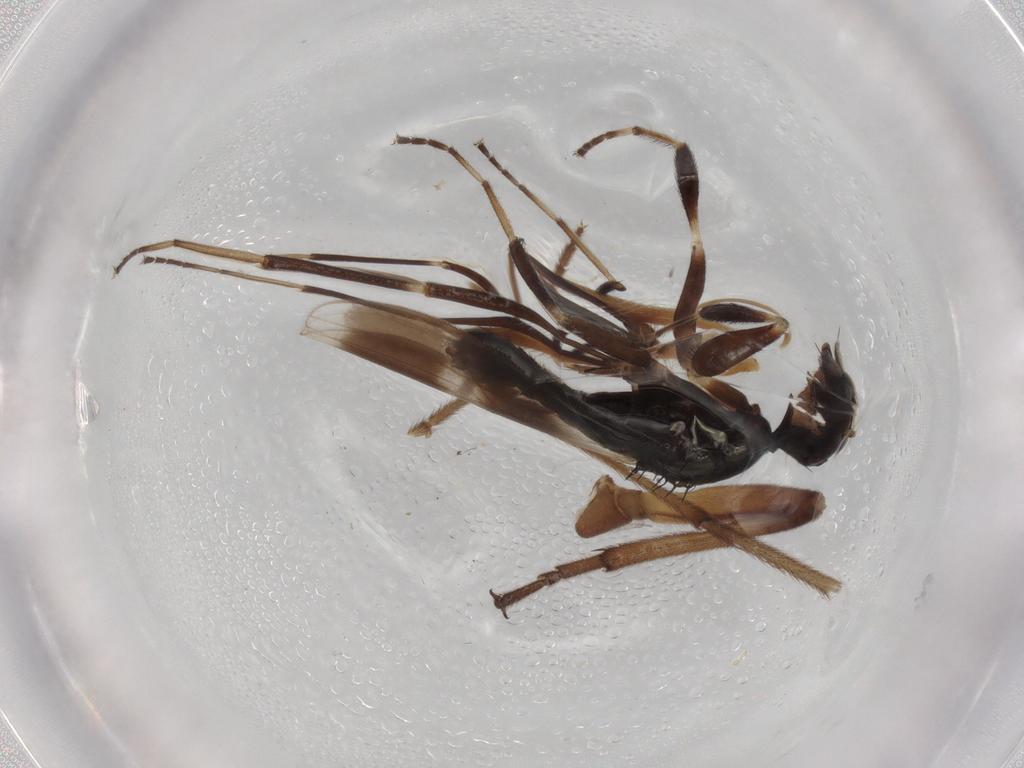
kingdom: Animalia
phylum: Arthropoda
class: Insecta
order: Diptera
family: Hybotidae
